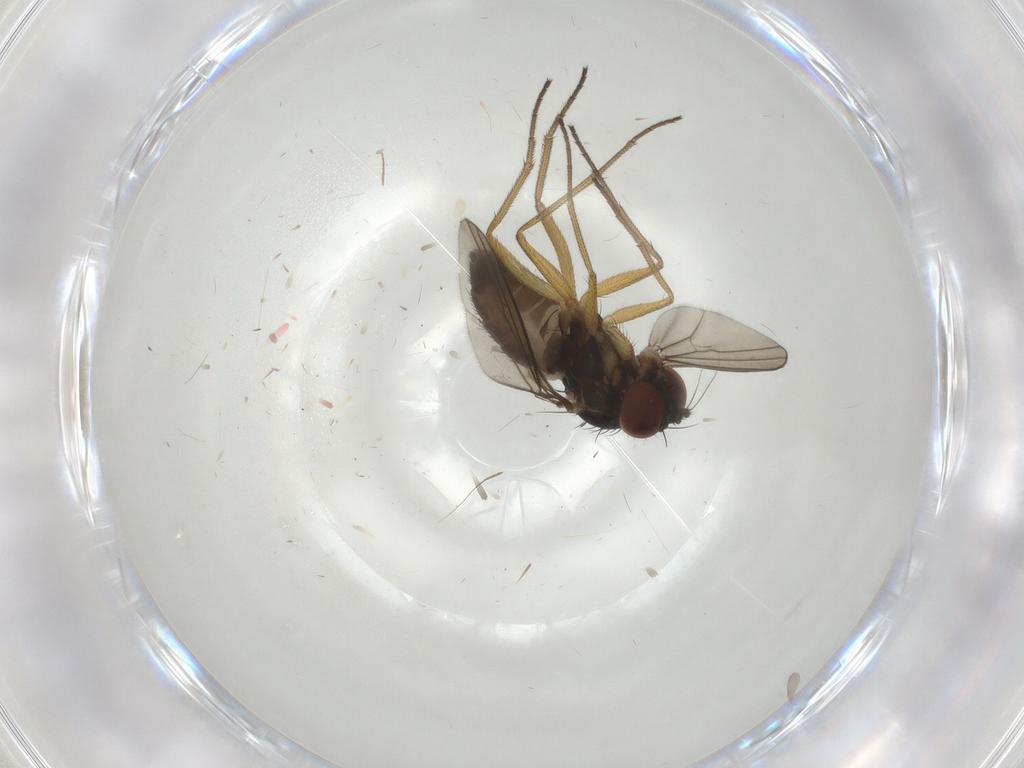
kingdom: Animalia
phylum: Arthropoda
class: Insecta
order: Diptera
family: Dolichopodidae
